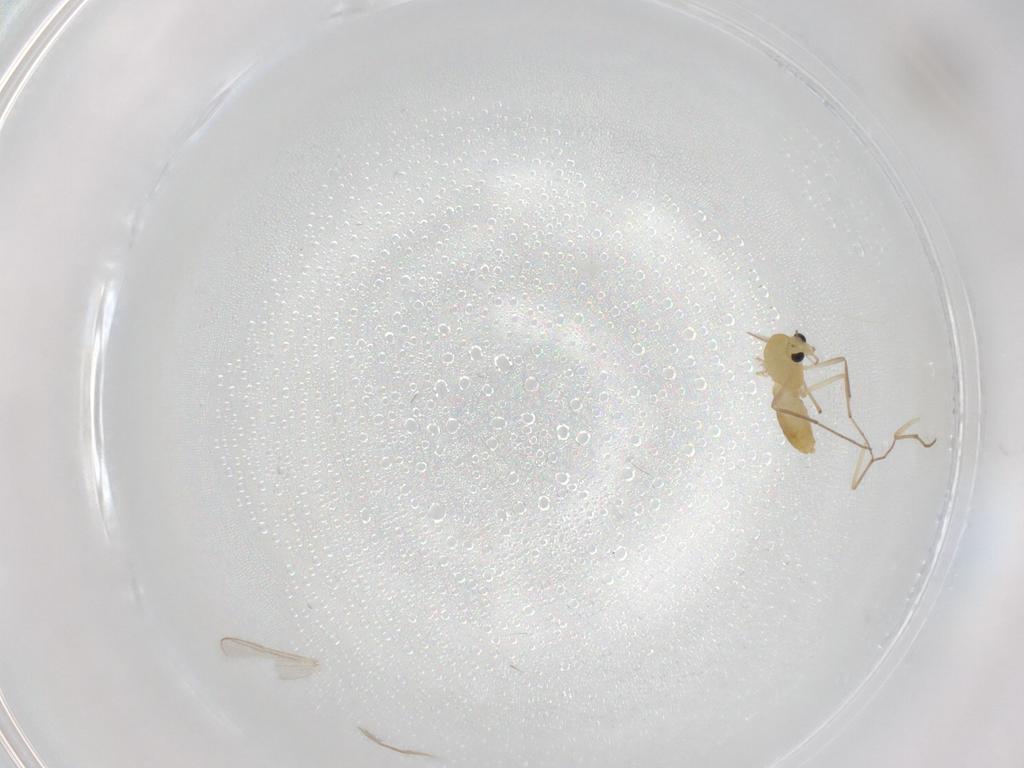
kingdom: Animalia
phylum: Arthropoda
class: Insecta
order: Diptera
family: Chironomidae
